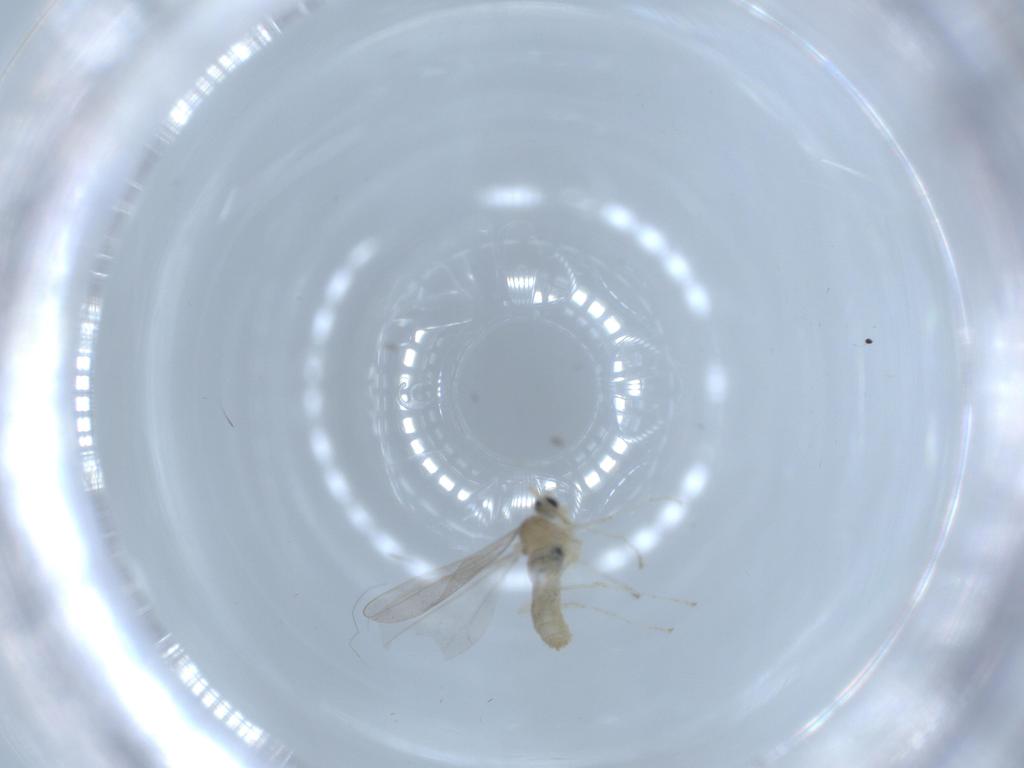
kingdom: Animalia
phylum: Arthropoda
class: Insecta
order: Diptera
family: Cecidomyiidae
